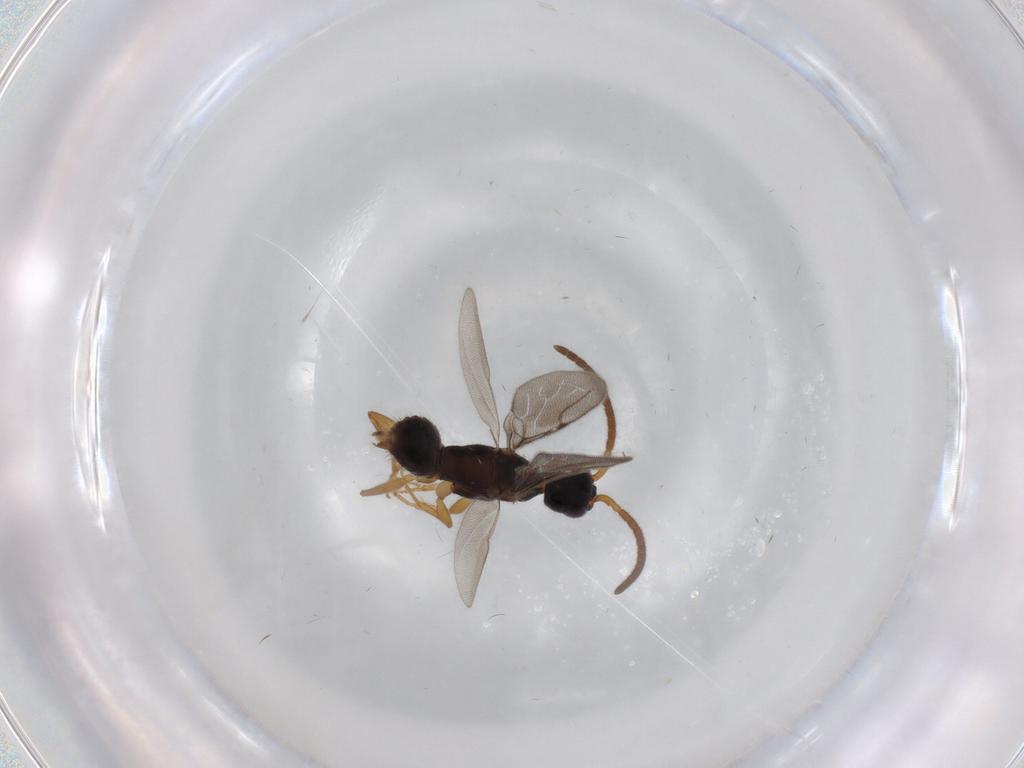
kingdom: Animalia
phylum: Arthropoda
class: Insecta
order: Hymenoptera
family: Bethylidae
